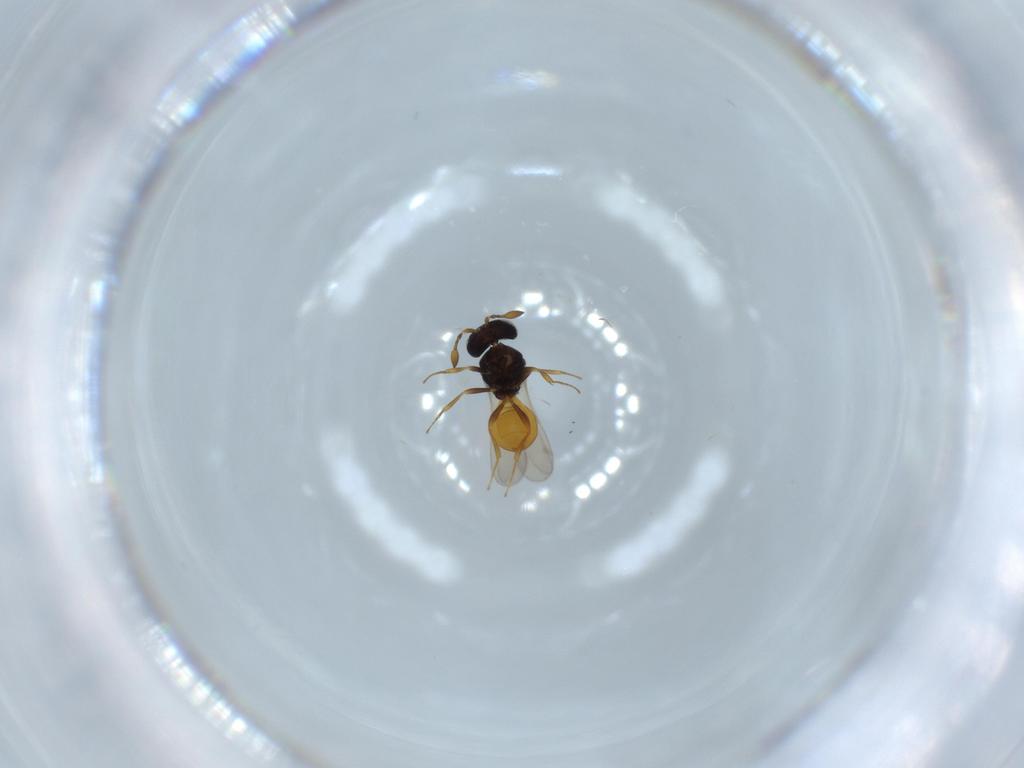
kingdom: Animalia
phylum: Arthropoda
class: Insecta
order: Hymenoptera
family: Scelionidae
